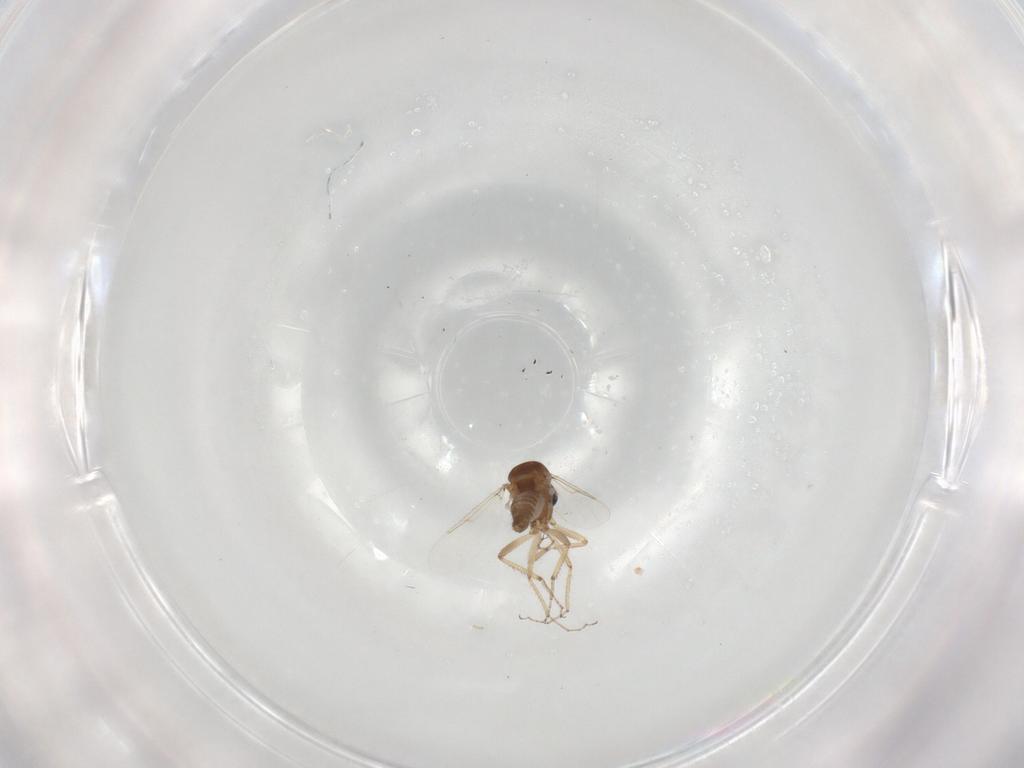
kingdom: Animalia
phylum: Arthropoda
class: Insecta
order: Diptera
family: Ceratopogonidae
